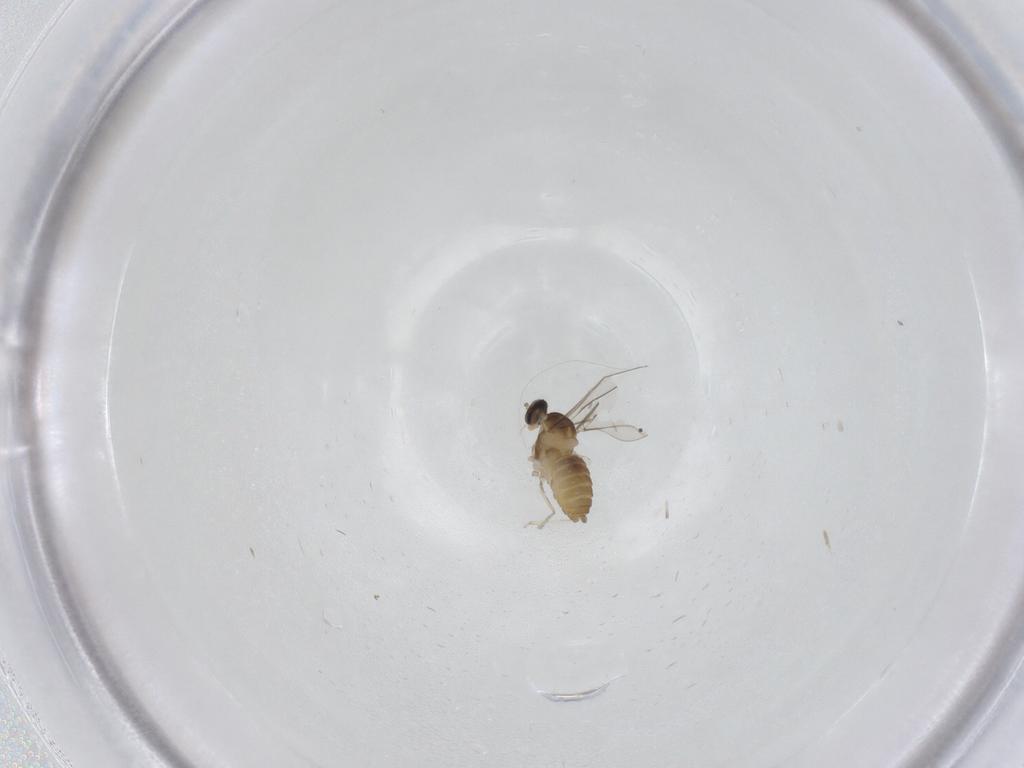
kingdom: Animalia
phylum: Arthropoda
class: Insecta
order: Diptera
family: Cecidomyiidae
